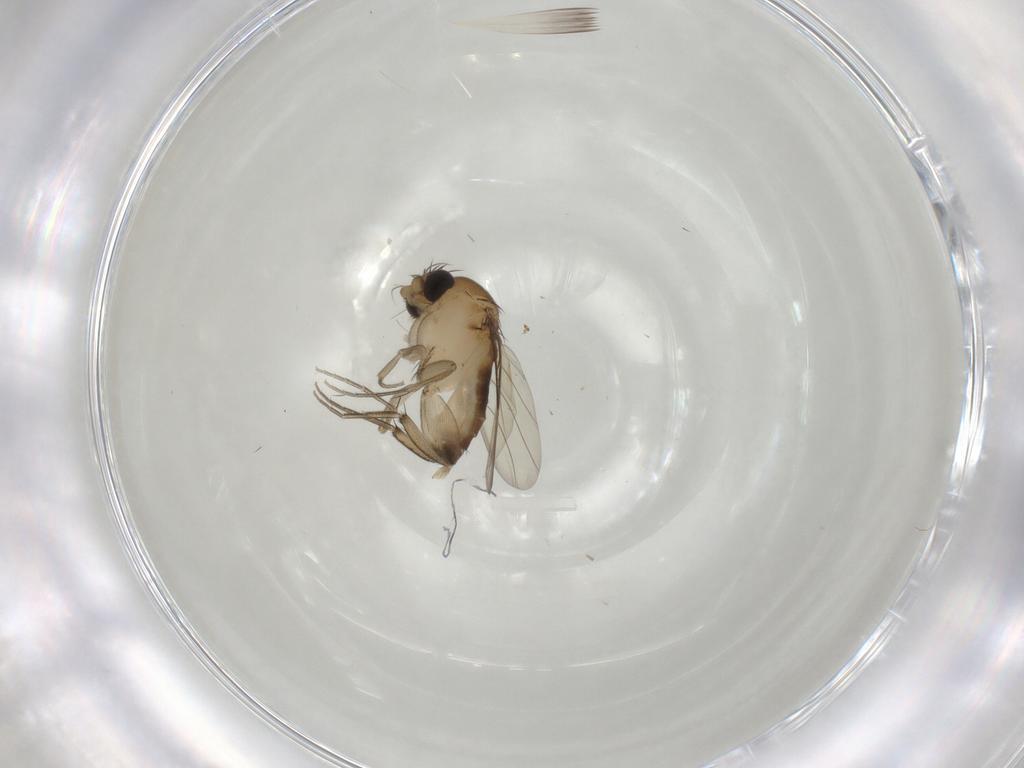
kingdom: Animalia
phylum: Arthropoda
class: Insecta
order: Diptera
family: Phoridae
